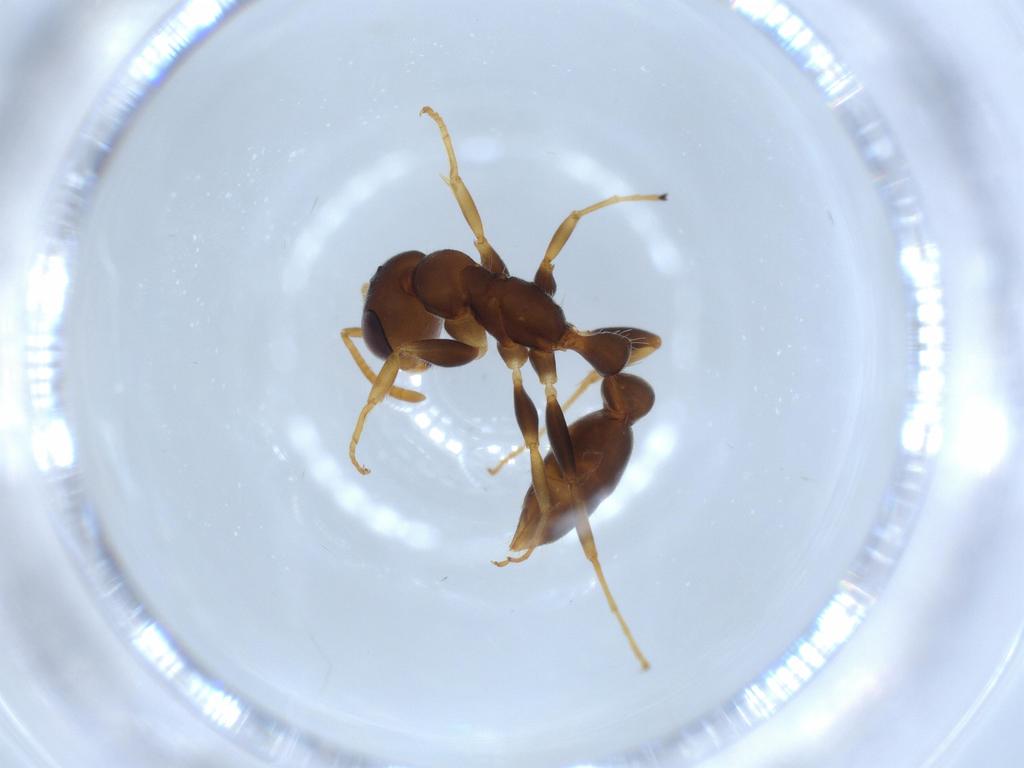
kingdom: Animalia
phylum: Arthropoda
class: Insecta
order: Hymenoptera
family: Formicidae
